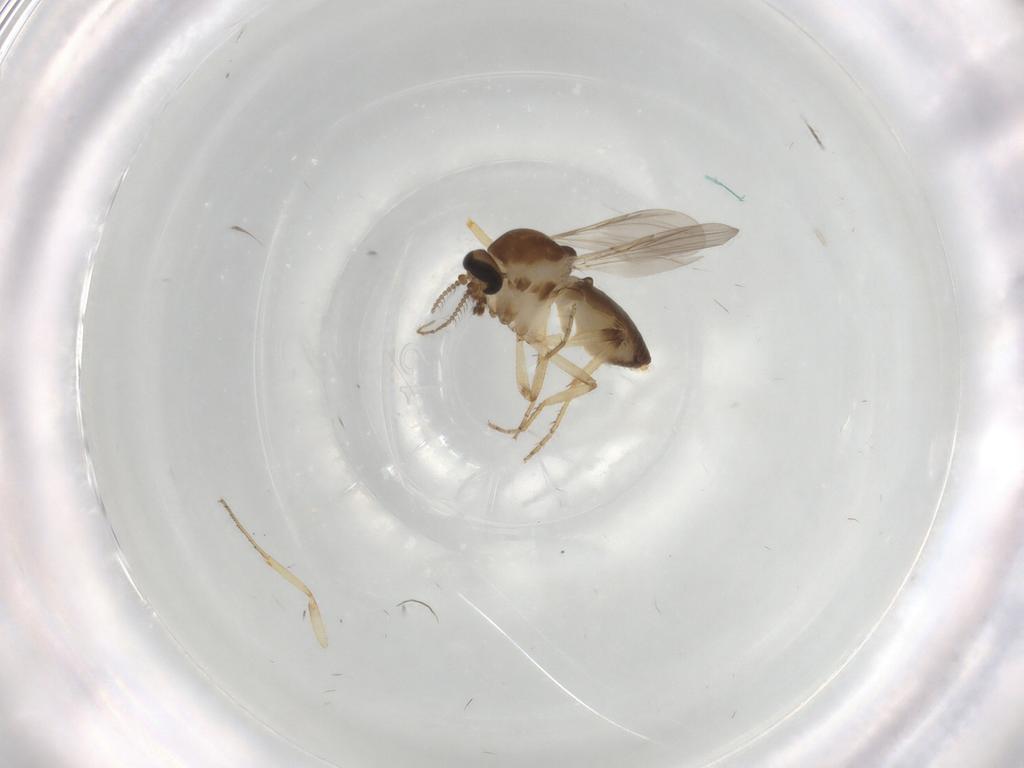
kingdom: Animalia
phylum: Arthropoda
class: Insecta
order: Diptera
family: Ceratopogonidae
